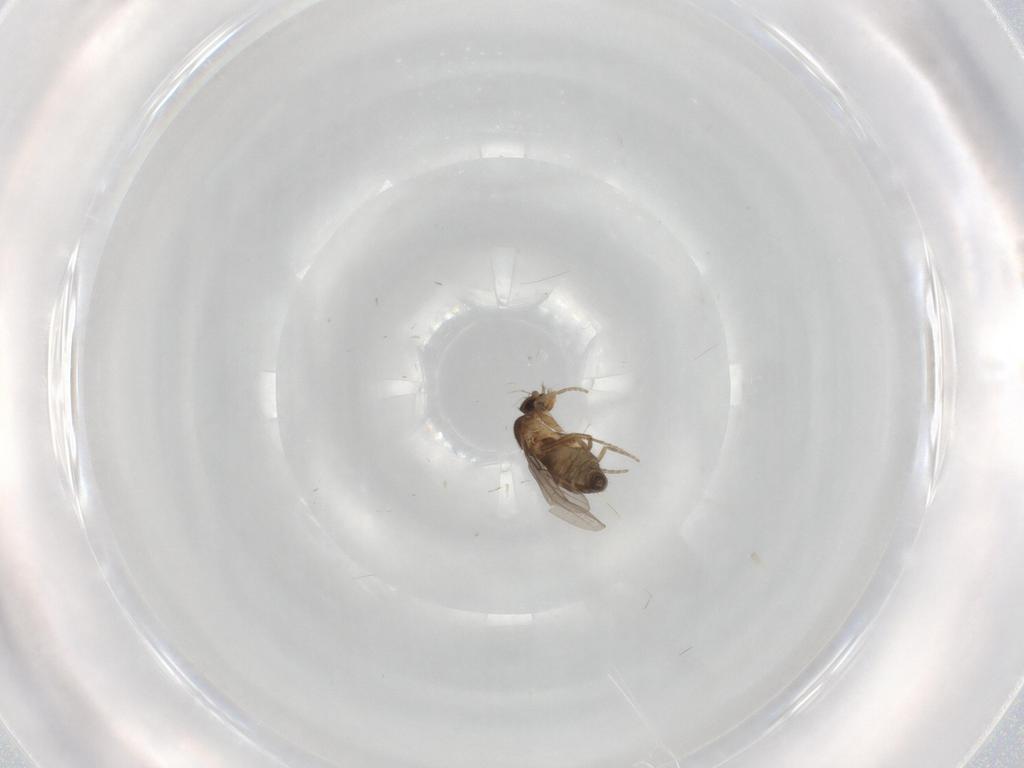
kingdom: Animalia
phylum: Arthropoda
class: Insecta
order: Diptera
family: Phoridae
